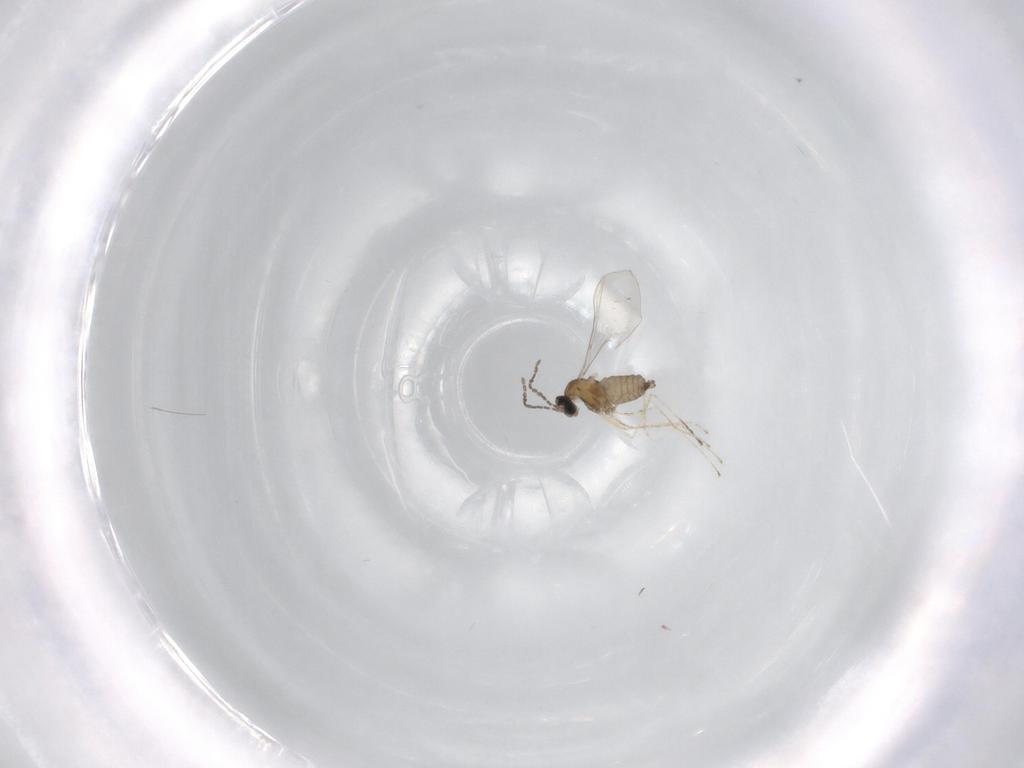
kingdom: Animalia
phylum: Arthropoda
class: Insecta
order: Diptera
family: Cecidomyiidae
